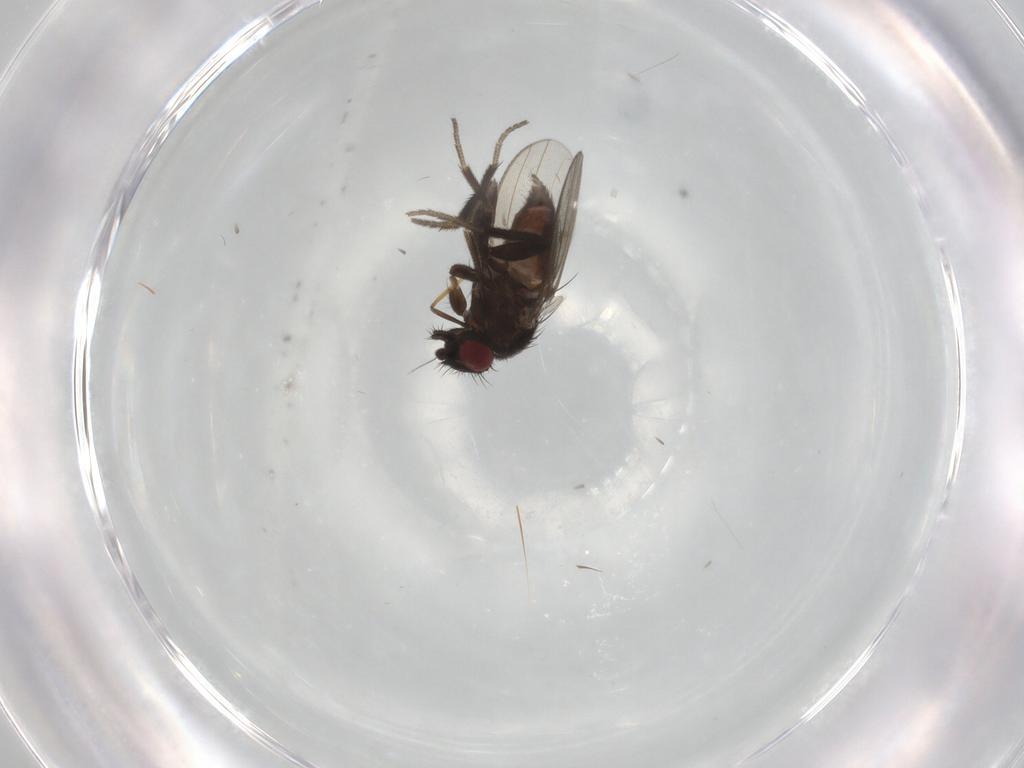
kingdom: Animalia
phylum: Arthropoda
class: Insecta
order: Diptera
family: Milichiidae
